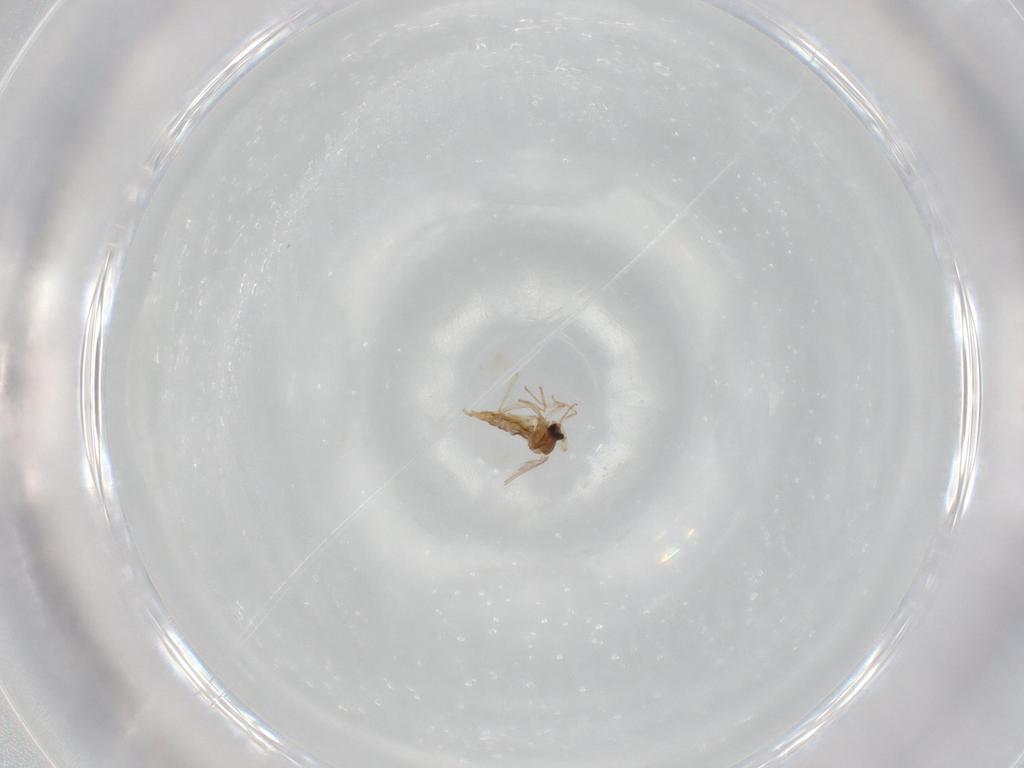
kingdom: Animalia
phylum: Arthropoda
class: Insecta
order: Diptera
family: Cecidomyiidae
